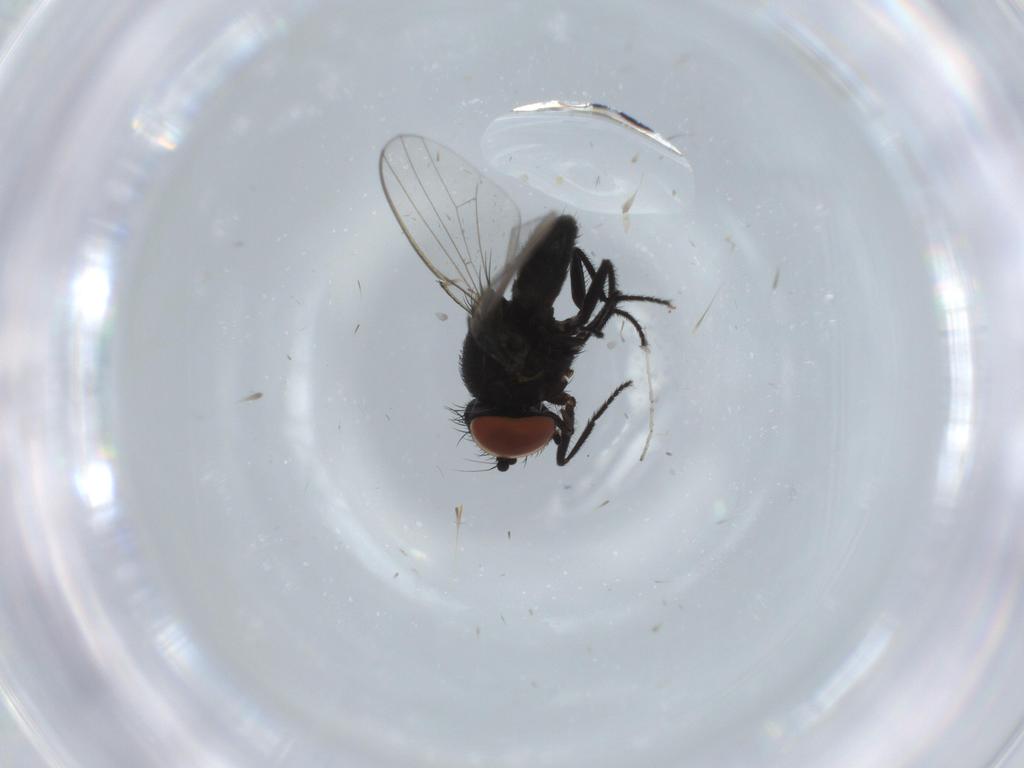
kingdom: Animalia
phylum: Arthropoda
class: Insecta
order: Diptera
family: Milichiidae
